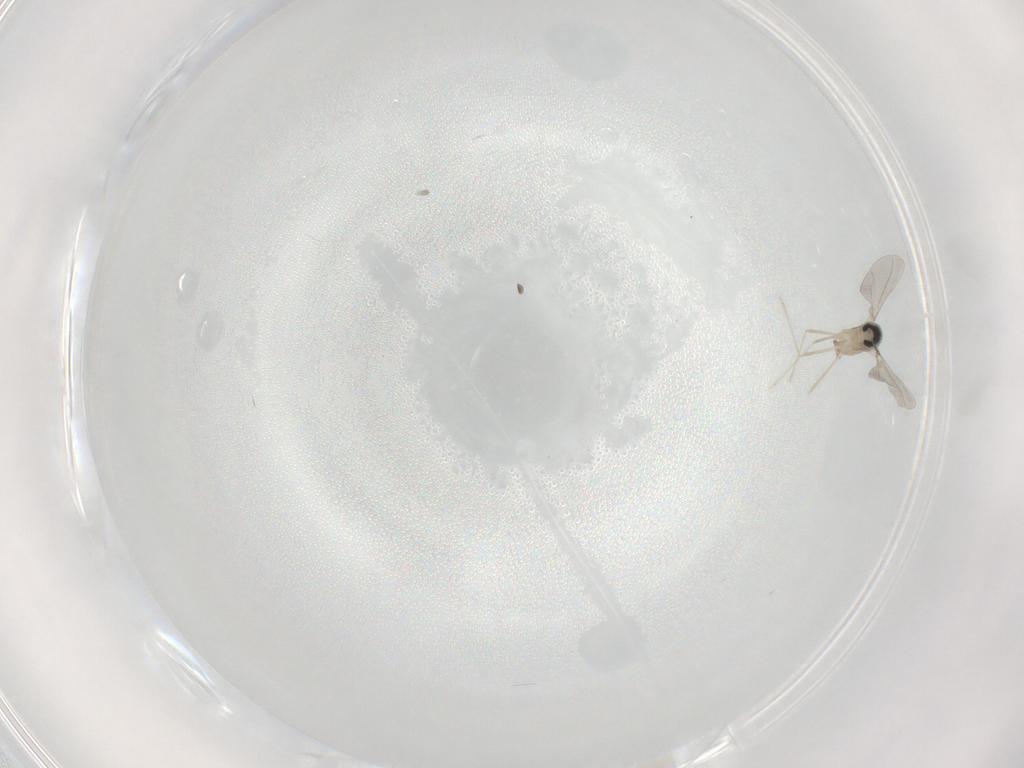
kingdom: Animalia
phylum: Arthropoda
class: Insecta
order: Diptera
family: Cecidomyiidae
